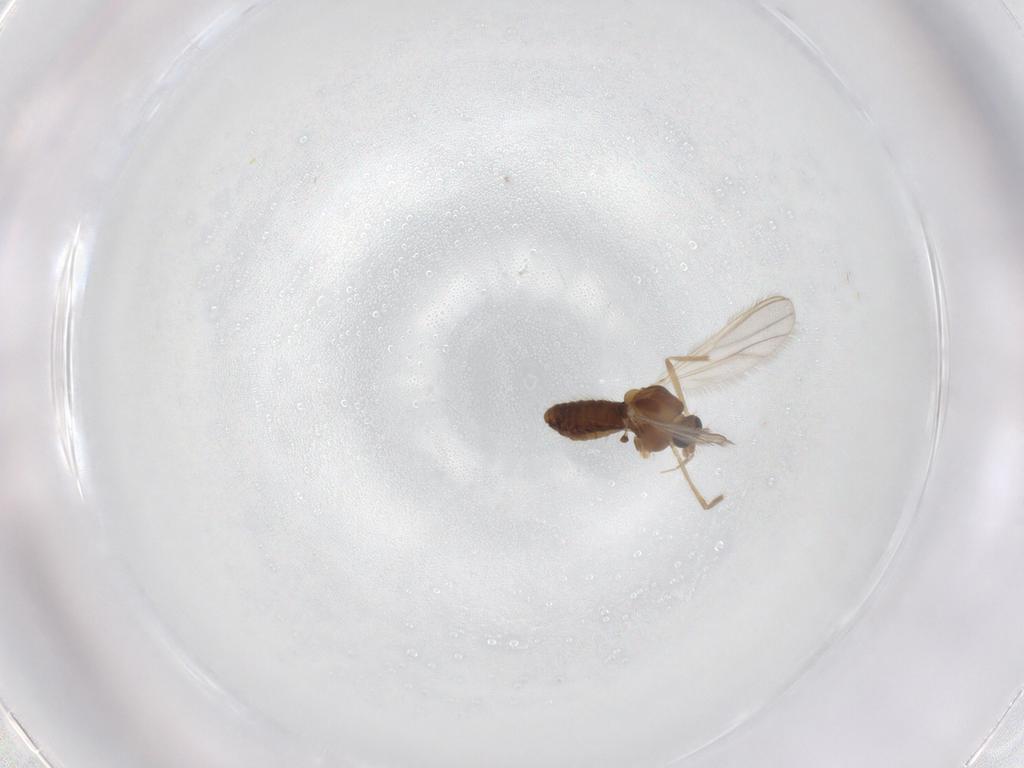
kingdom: Animalia
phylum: Arthropoda
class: Insecta
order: Diptera
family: Chironomidae
